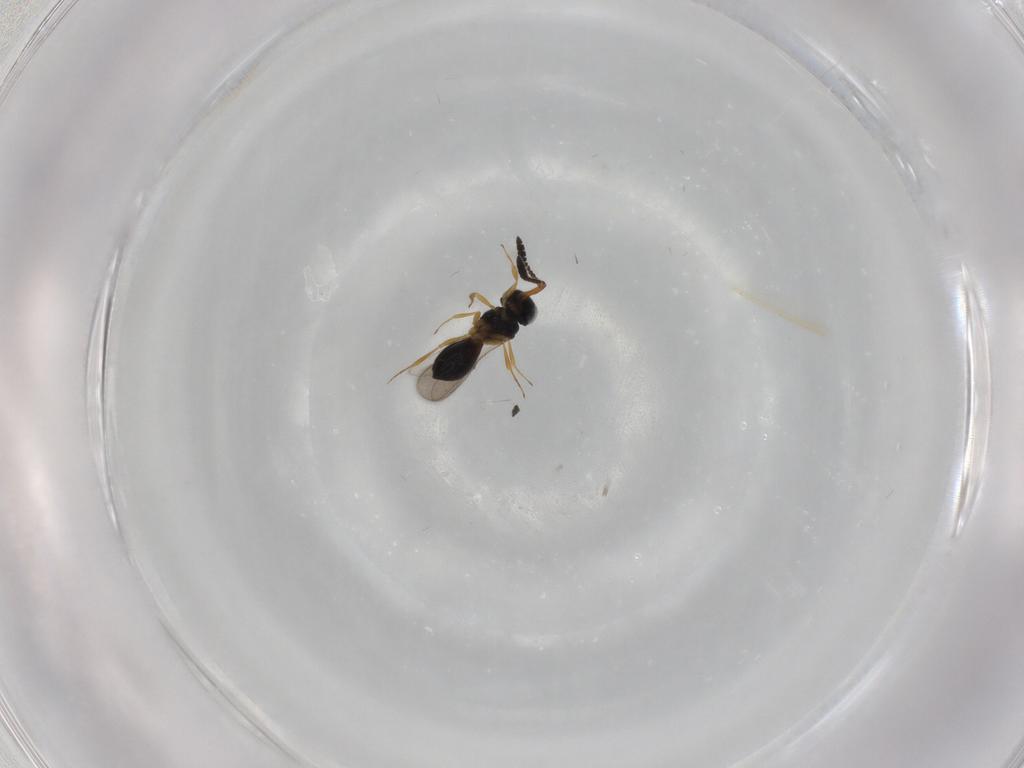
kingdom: Animalia
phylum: Arthropoda
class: Insecta
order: Hymenoptera
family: Scelionidae
